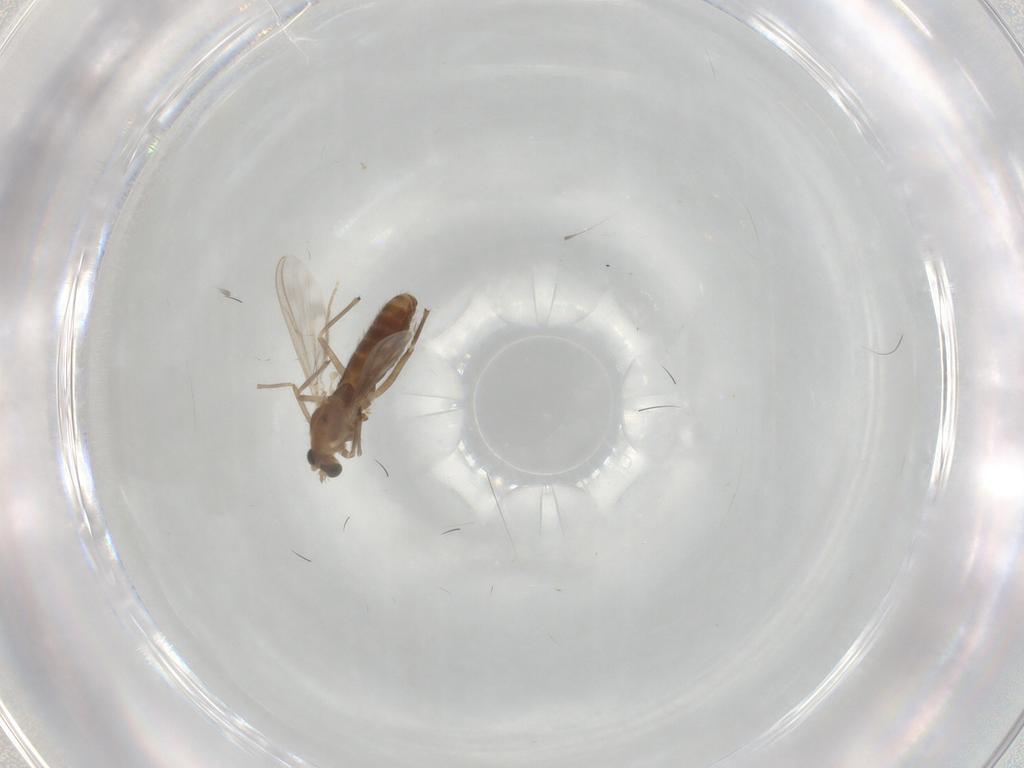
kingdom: Animalia
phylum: Arthropoda
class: Insecta
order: Diptera
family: Chironomidae
